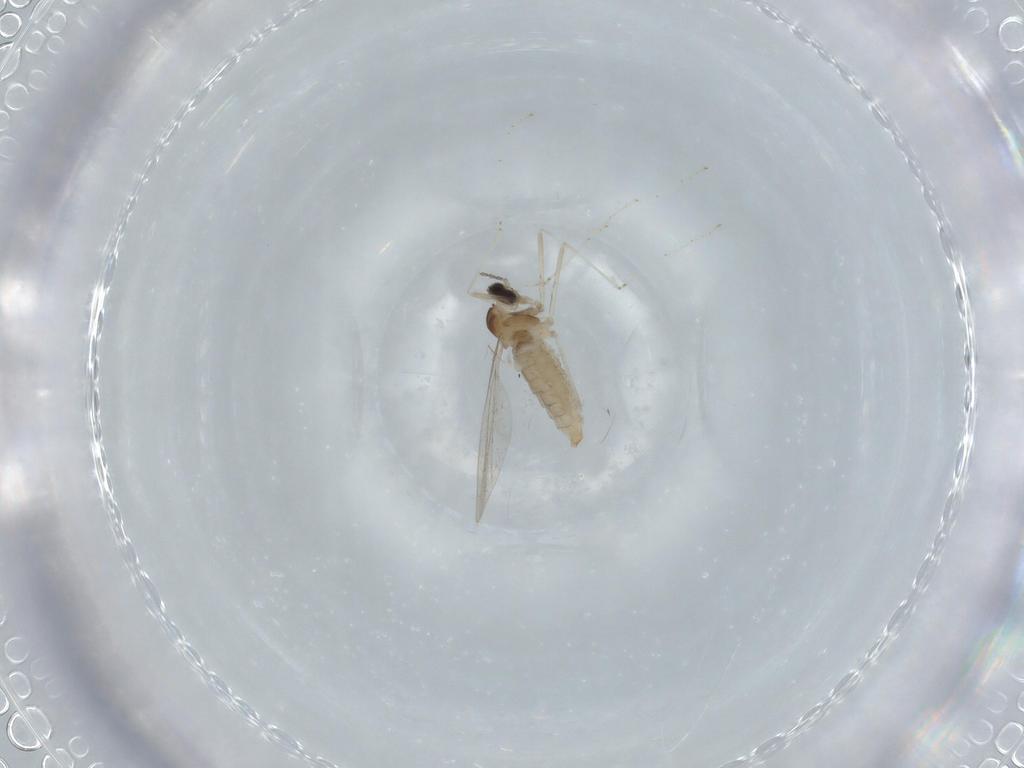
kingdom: Animalia
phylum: Arthropoda
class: Insecta
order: Diptera
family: Cecidomyiidae
